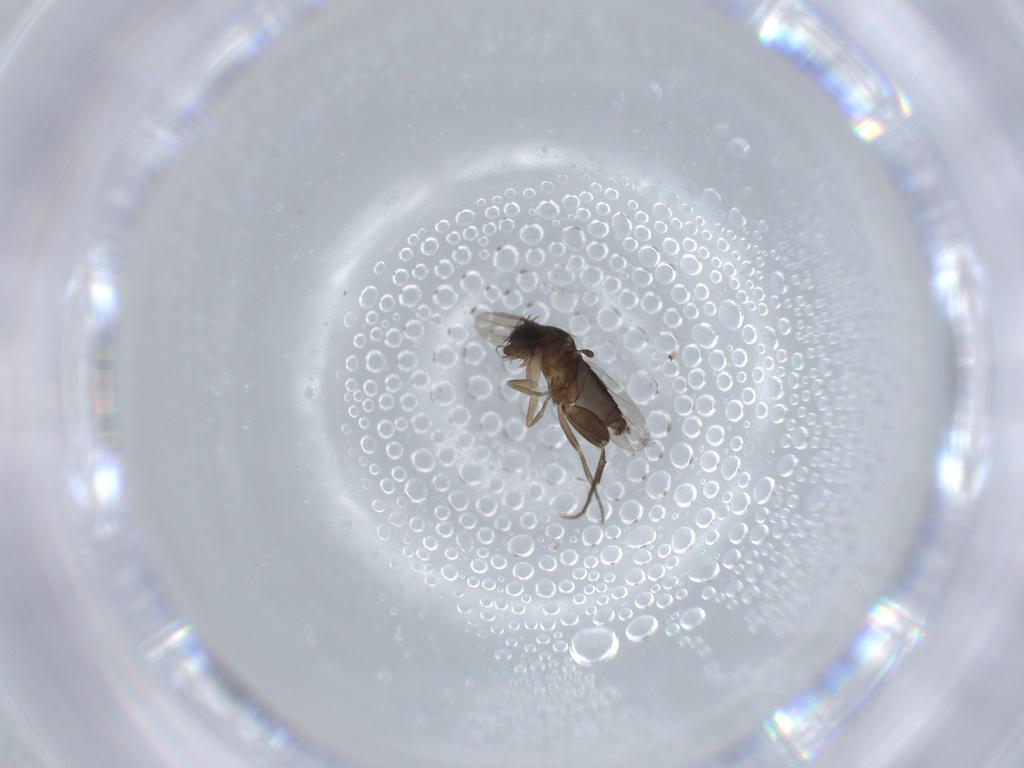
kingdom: Animalia
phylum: Arthropoda
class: Insecta
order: Diptera
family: Phoridae
